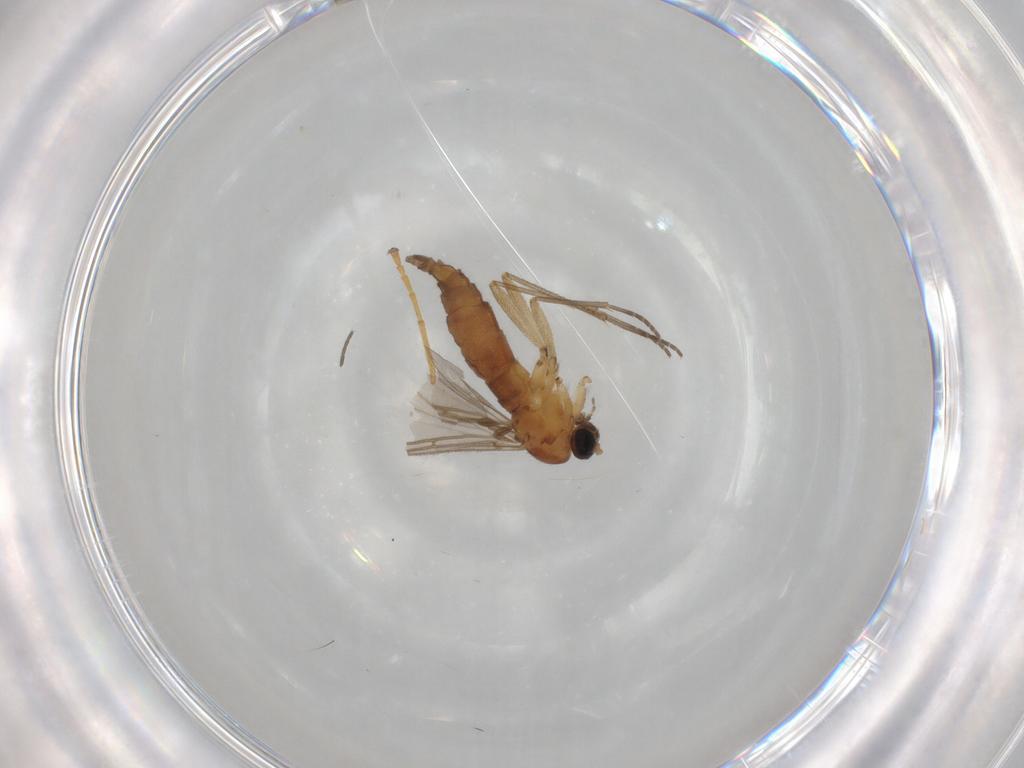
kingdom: Animalia
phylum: Arthropoda
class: Insecta
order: Diptera
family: Sciaridae
